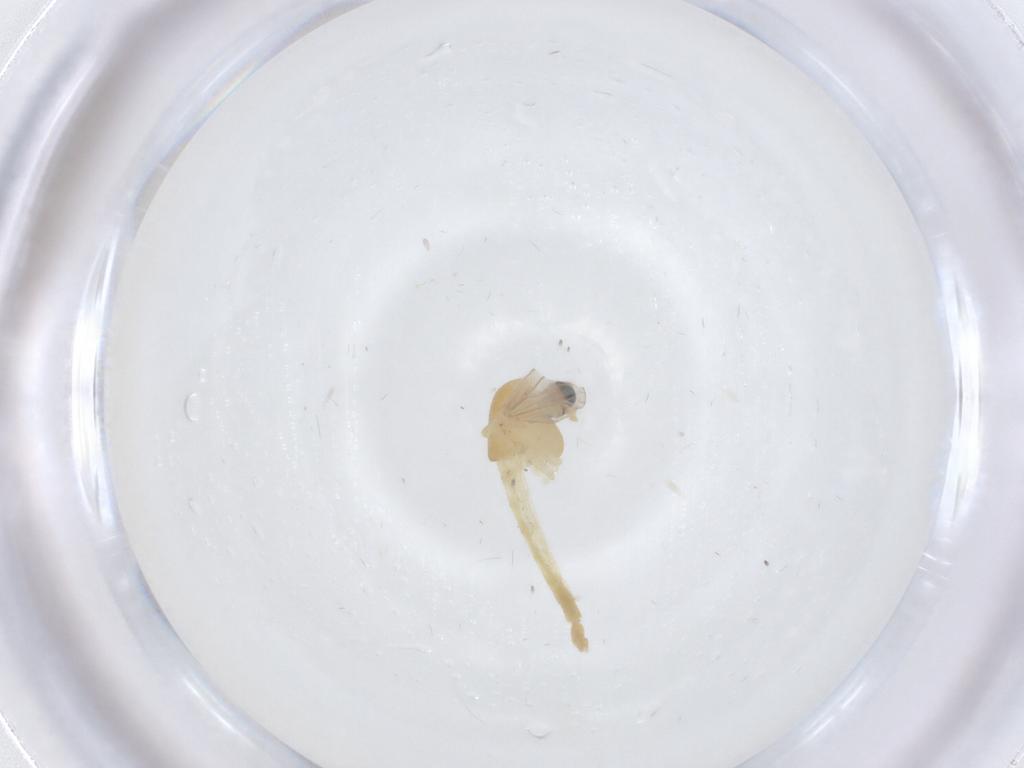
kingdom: Animalia
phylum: Arthropoda
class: Insecta
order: Diptera
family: Chironomidae
